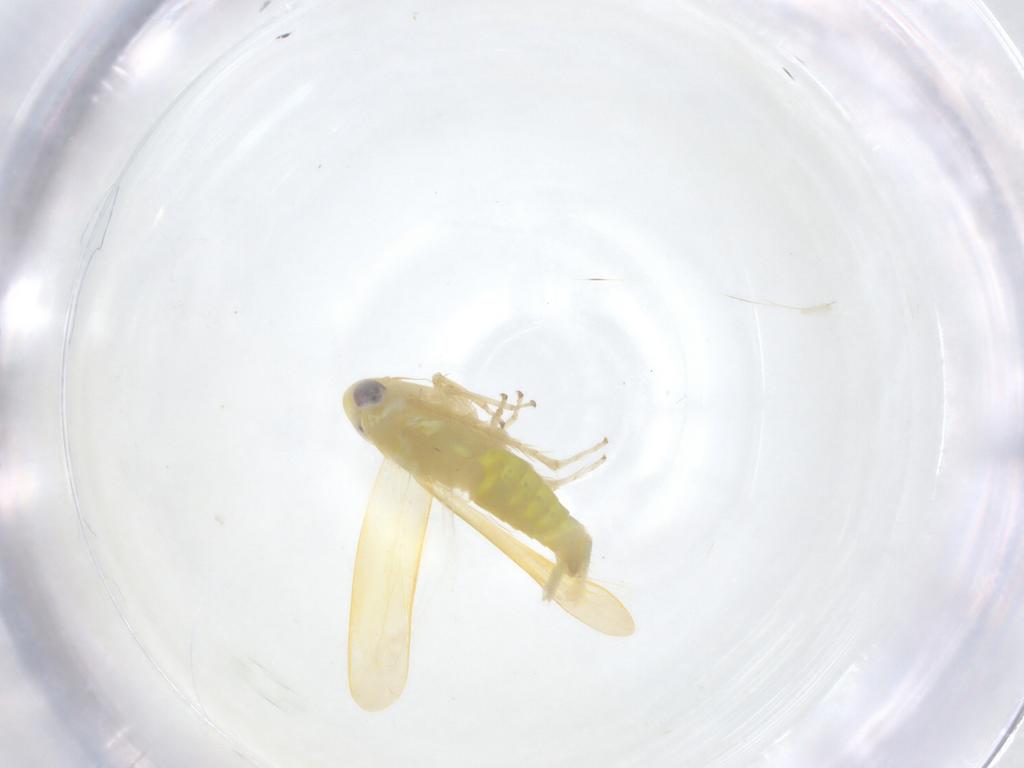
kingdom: Animalia
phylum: Arthropoda
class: Insecta
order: Hemiptera
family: Cicadellidae
